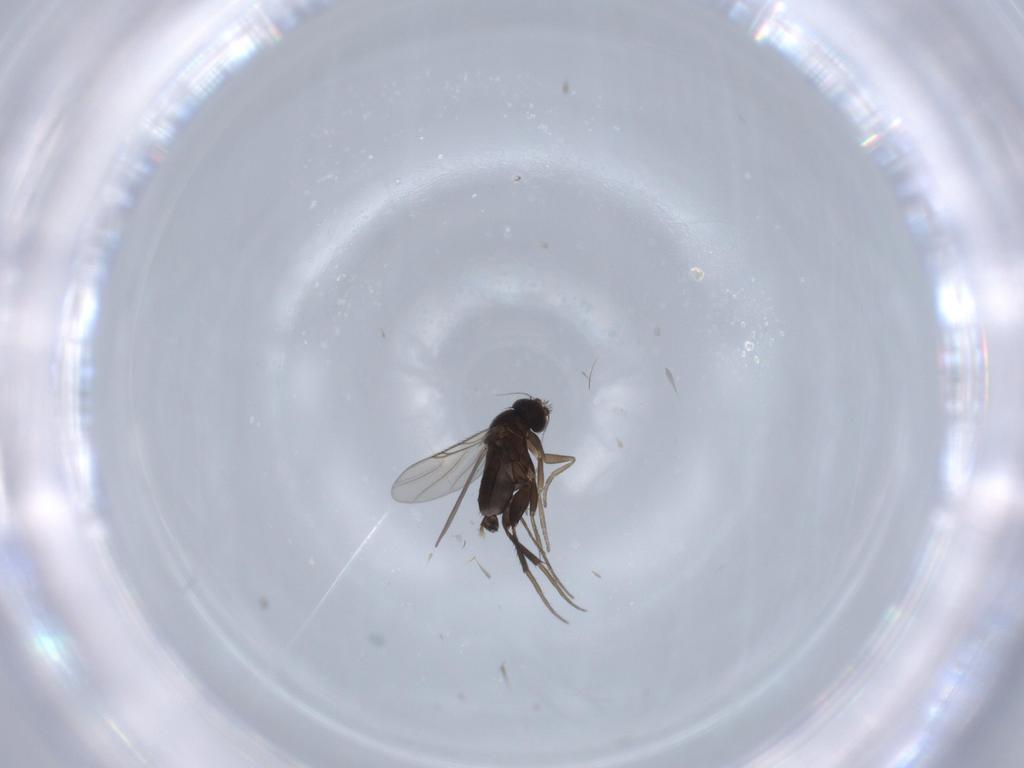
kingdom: Animalia
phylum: Arthropoda
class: Insecta
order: Diptera
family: Phoridae
